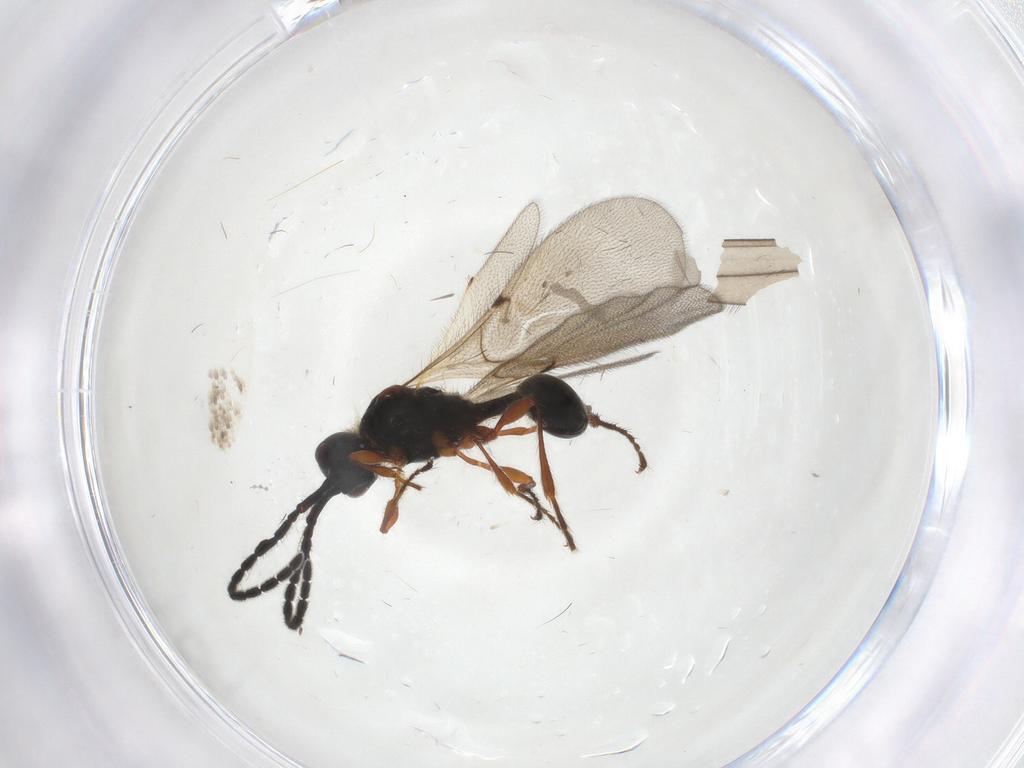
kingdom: Animalia
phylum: Arthropoda
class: Insecta
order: Hymenoptera
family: Diapriidae
